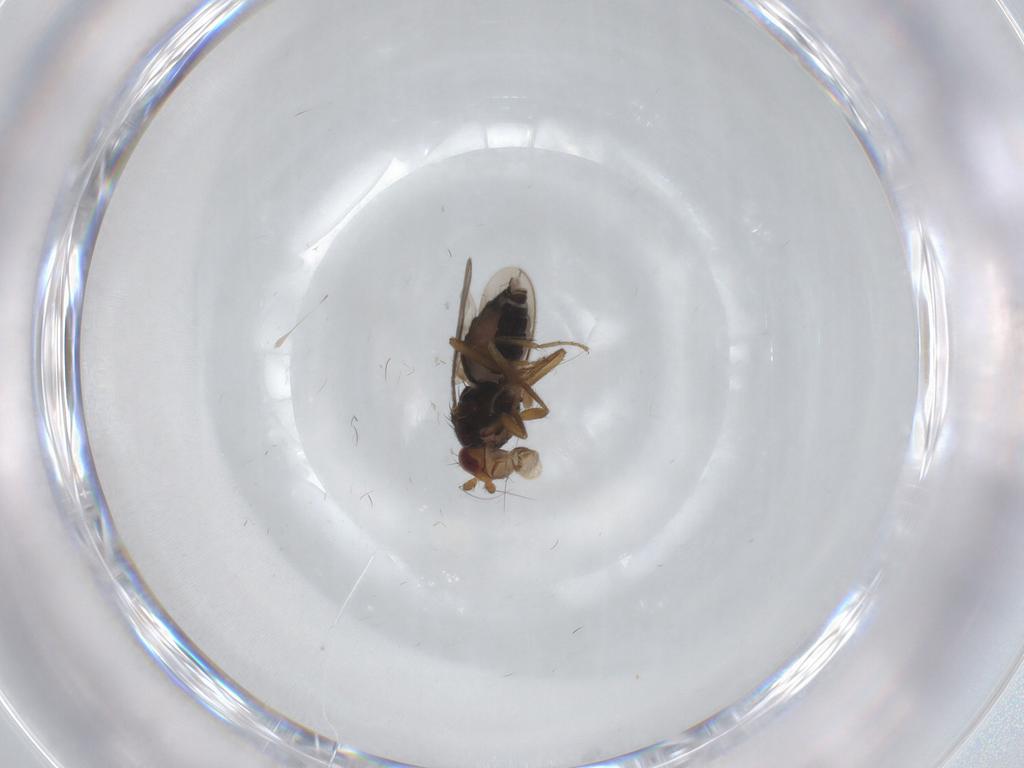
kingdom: Animalia
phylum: Arthropoda
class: Insecta
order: Diptera
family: Sphaeroceridae
